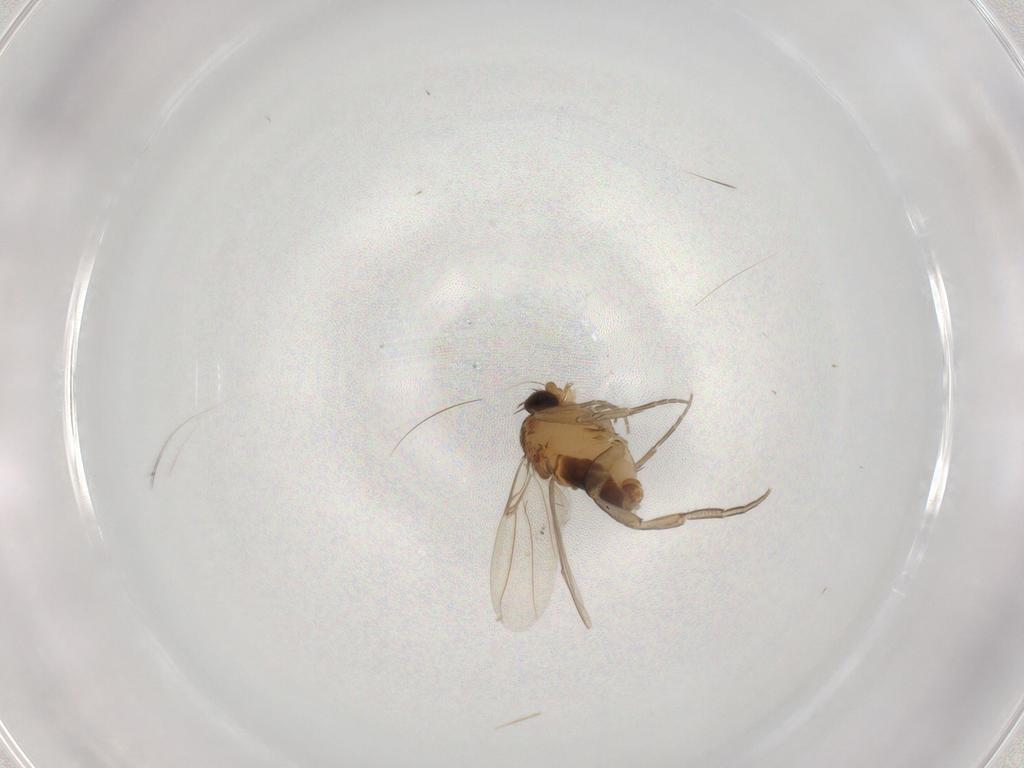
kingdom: Animalia
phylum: Arthropoda
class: Insecta
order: Diptera
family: Phoridae
